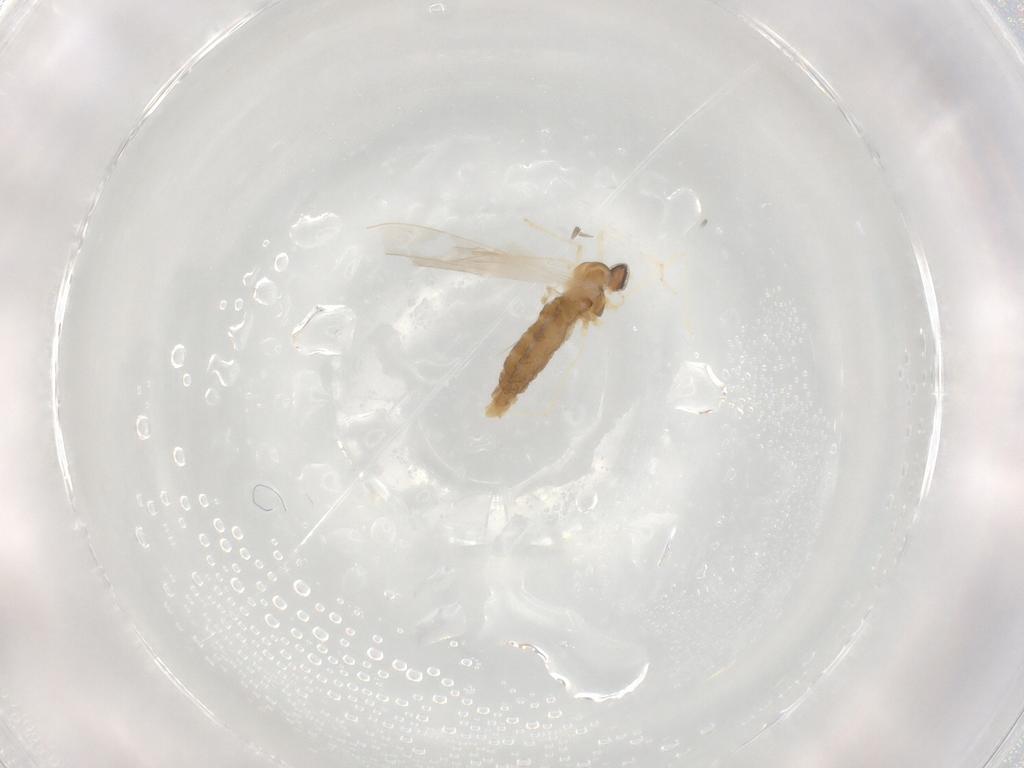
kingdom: Animalia
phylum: Arthropoda
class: Insecta
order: Diptera
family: Cecidomyiidae
